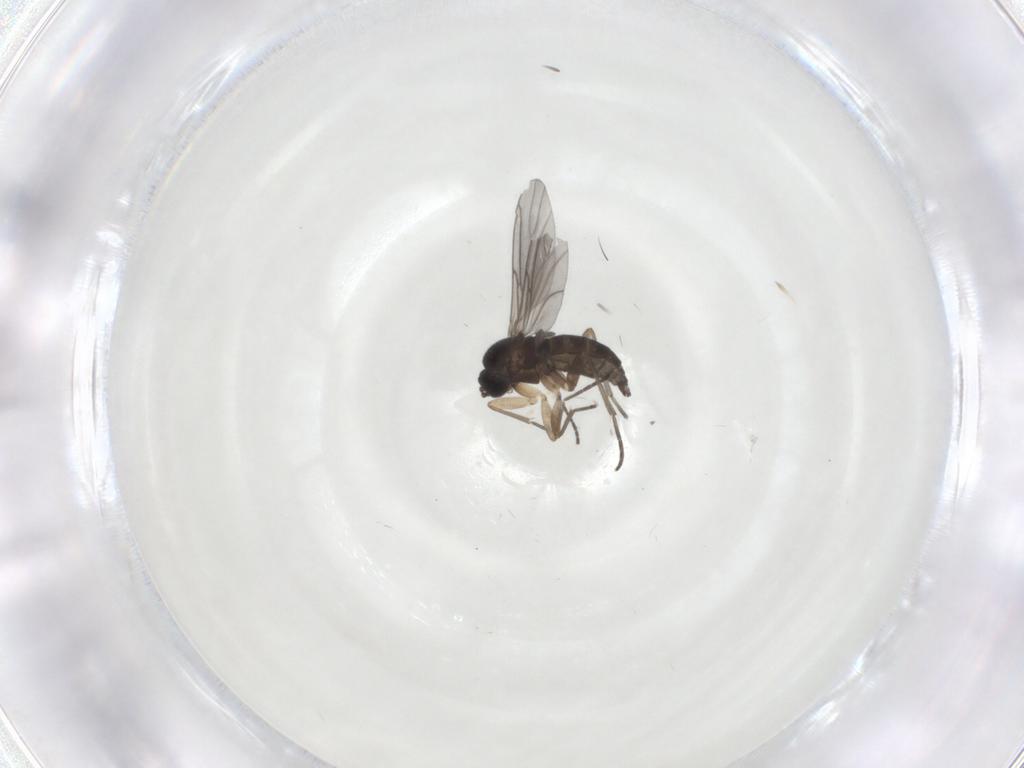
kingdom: Animalia
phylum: Arthropoda
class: Insecta
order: Diptera
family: Sciaridae
